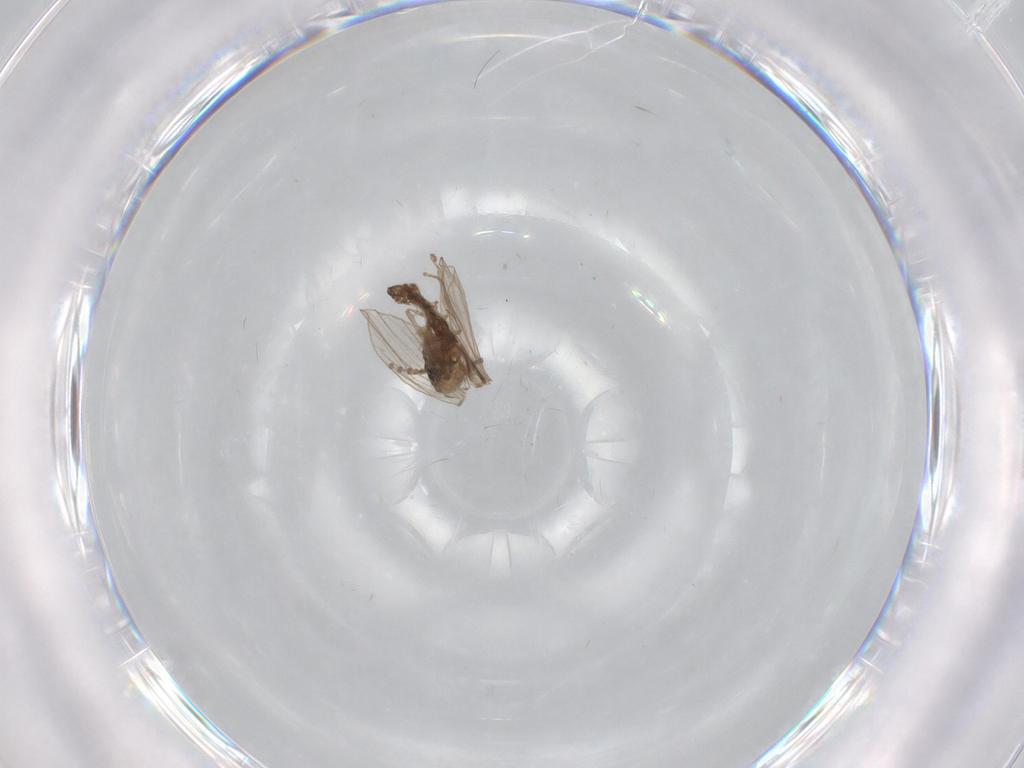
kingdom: Animalia
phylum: Arthropoda
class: Insecta
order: Diptera
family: Psychodidae
